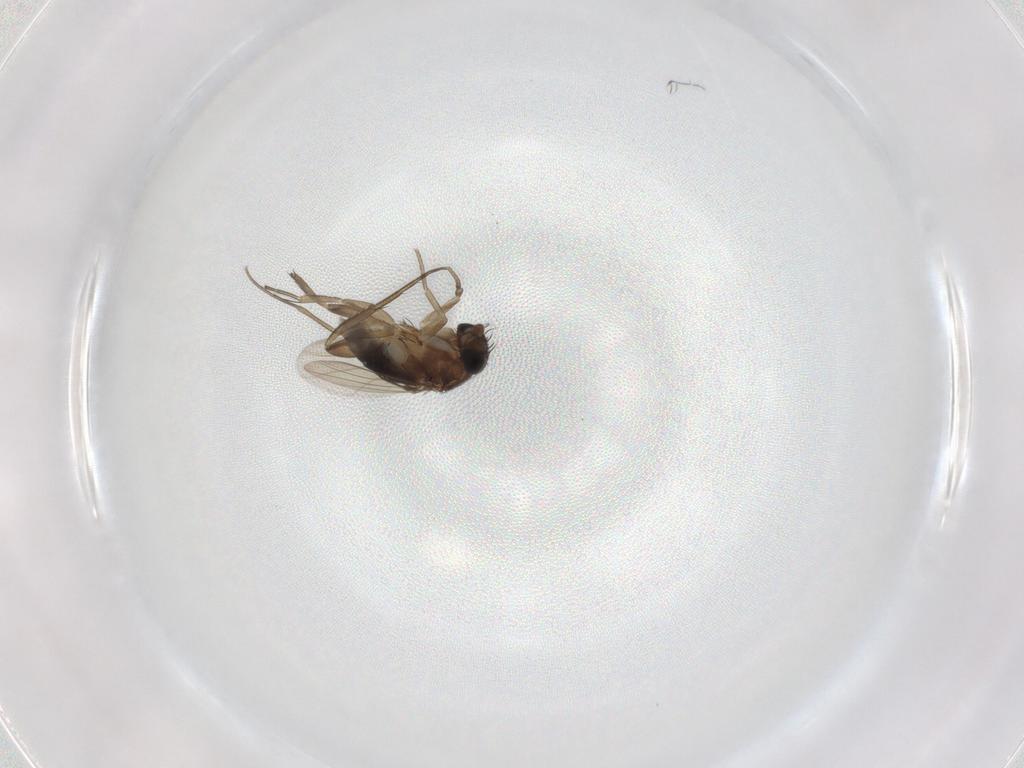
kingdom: Animalia
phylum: Arthropoda
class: Insecta
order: Diptera
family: Phoridae
